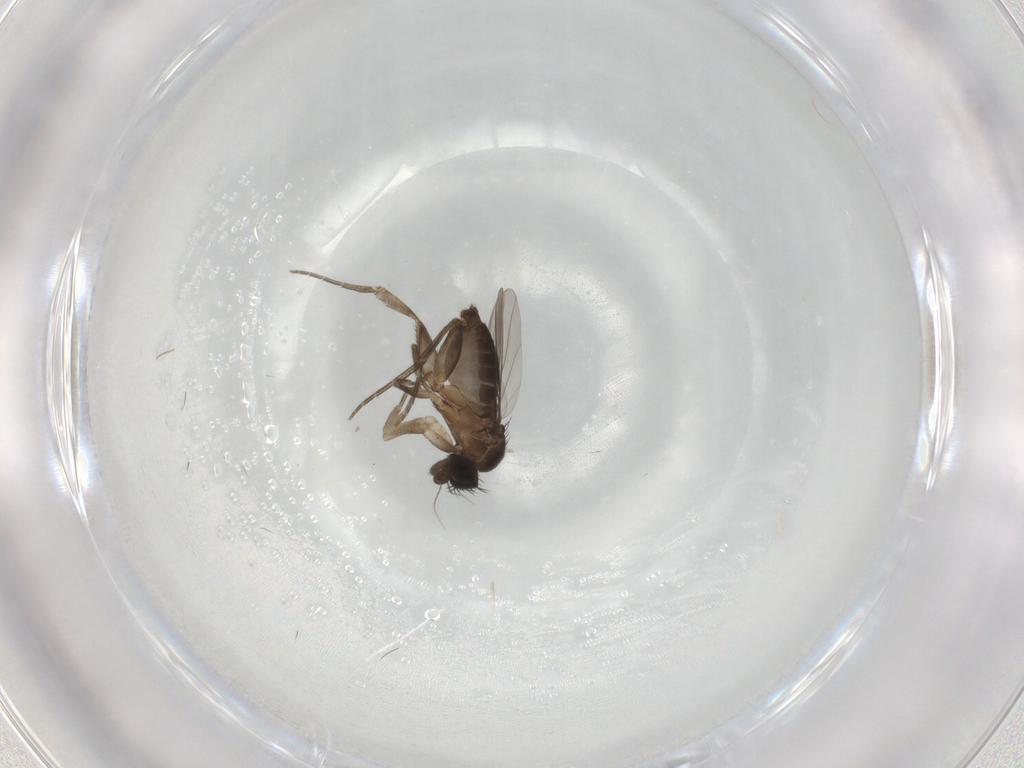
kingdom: Animalia
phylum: Arthropoda
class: Insecta
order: Diptera
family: Phoridae
